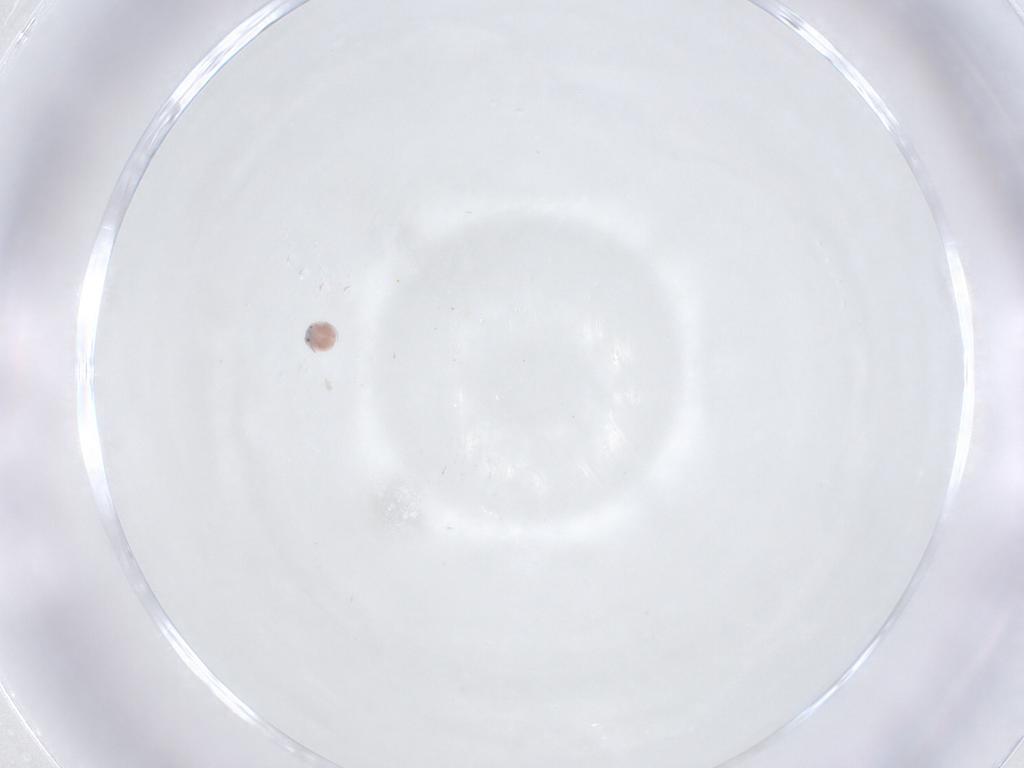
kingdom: Animalia
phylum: Arthropoda
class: Arachnida
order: Trombidiformes
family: Pionidae
